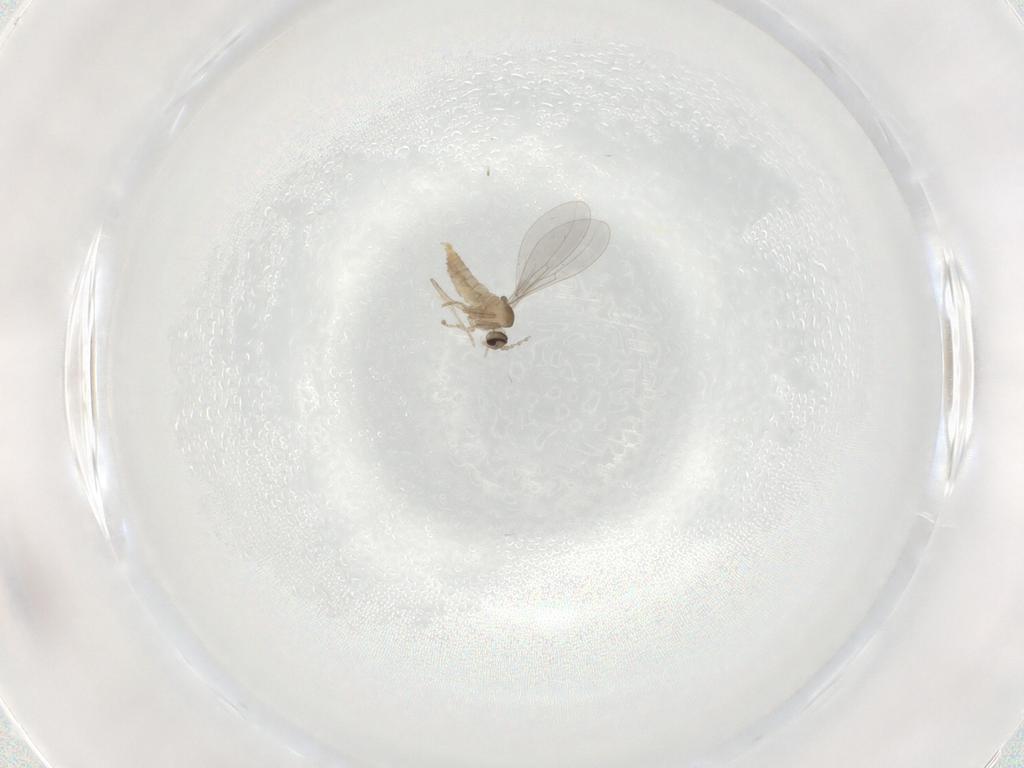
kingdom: Animalia
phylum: Arthropoda
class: Insecta
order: Diptera
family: Cecidomyiidae
